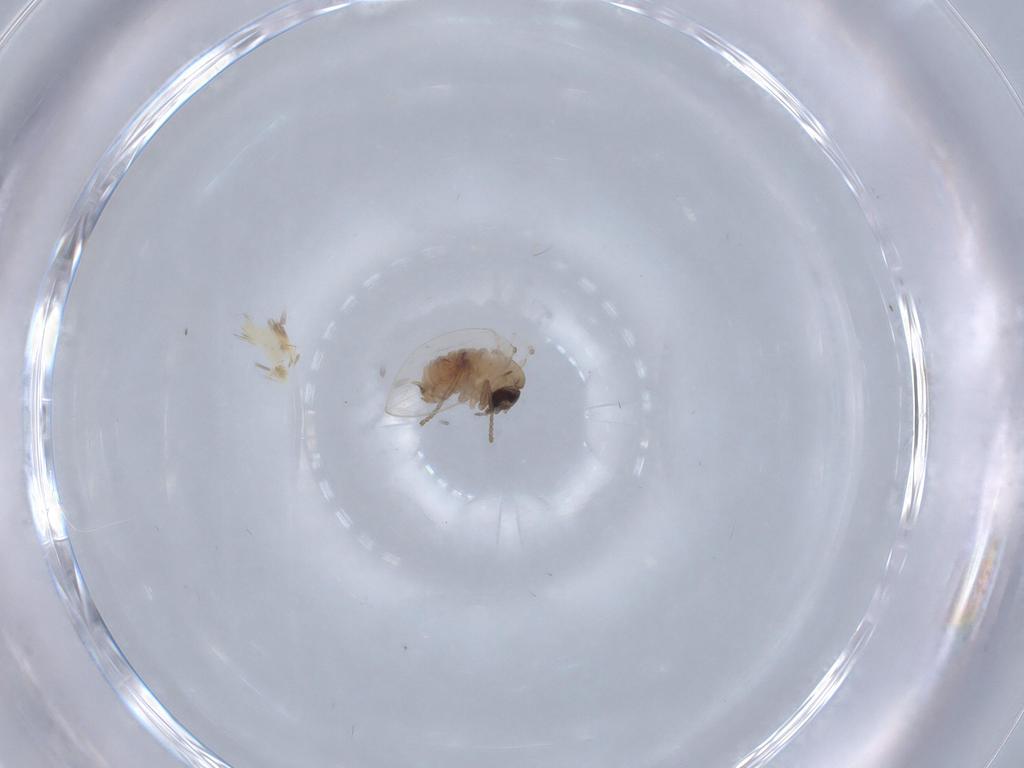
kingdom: Animalia
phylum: Arthropoda
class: Insecta
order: Diptera
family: Psychodidae
